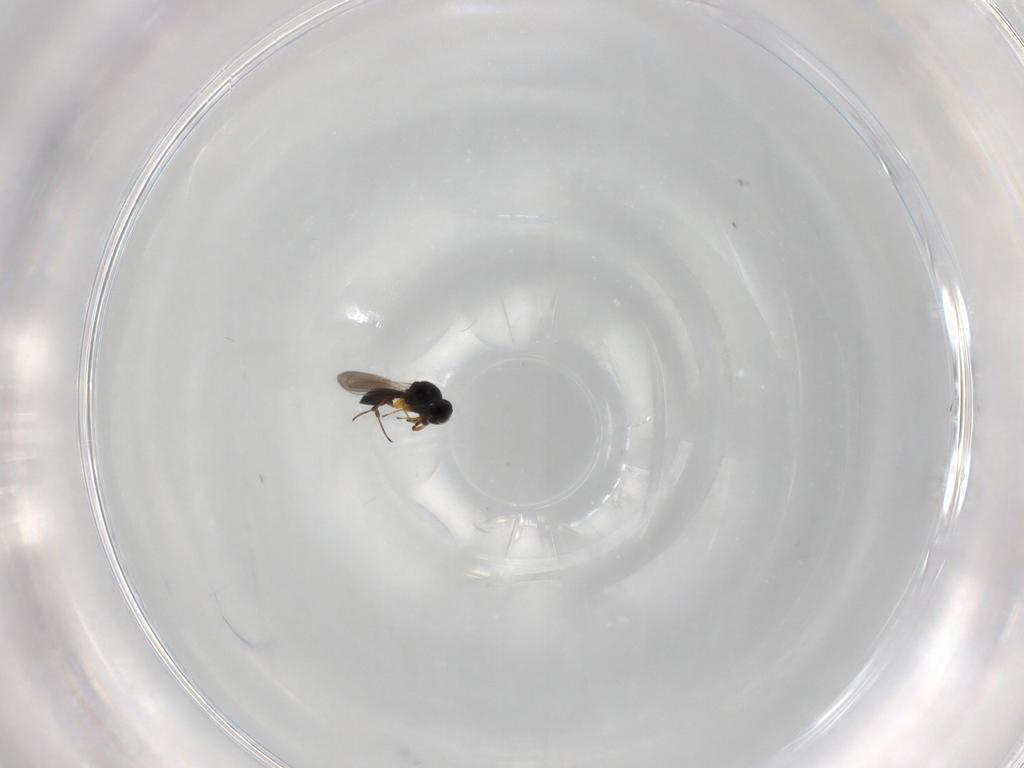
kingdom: Animalia
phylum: Arthropoda
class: Insecta
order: Hymenoptera
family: Platygastridae
